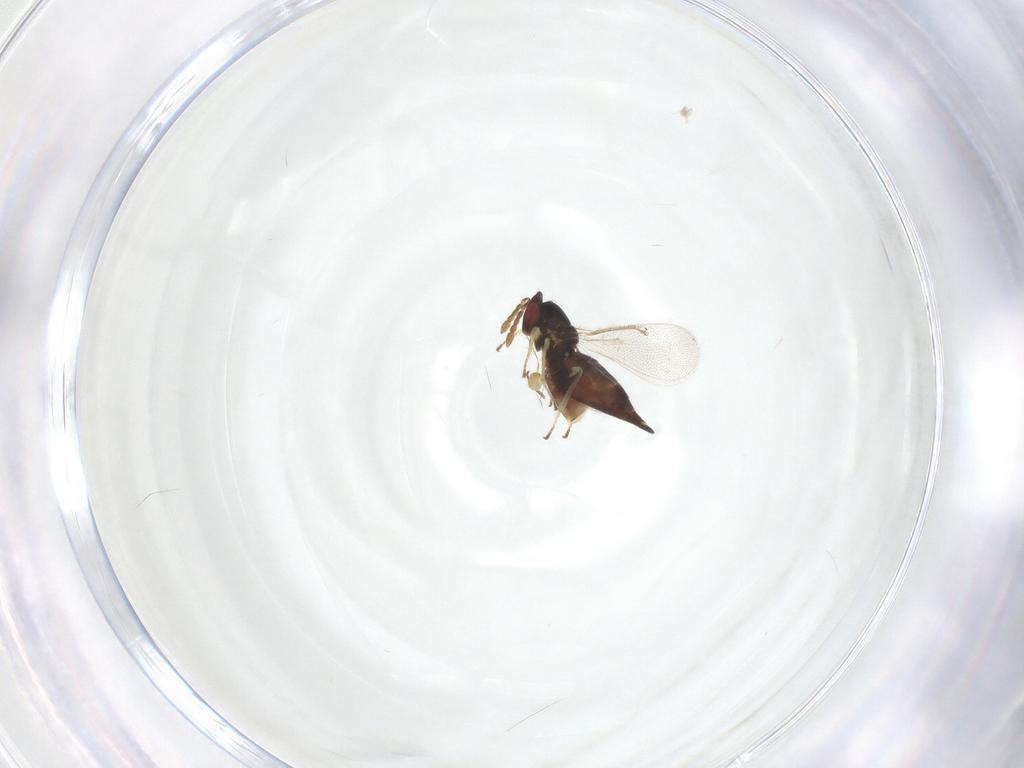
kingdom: Animalia
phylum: Arthropoda
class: Insecta
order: Hymenoptera
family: Eulophidae
